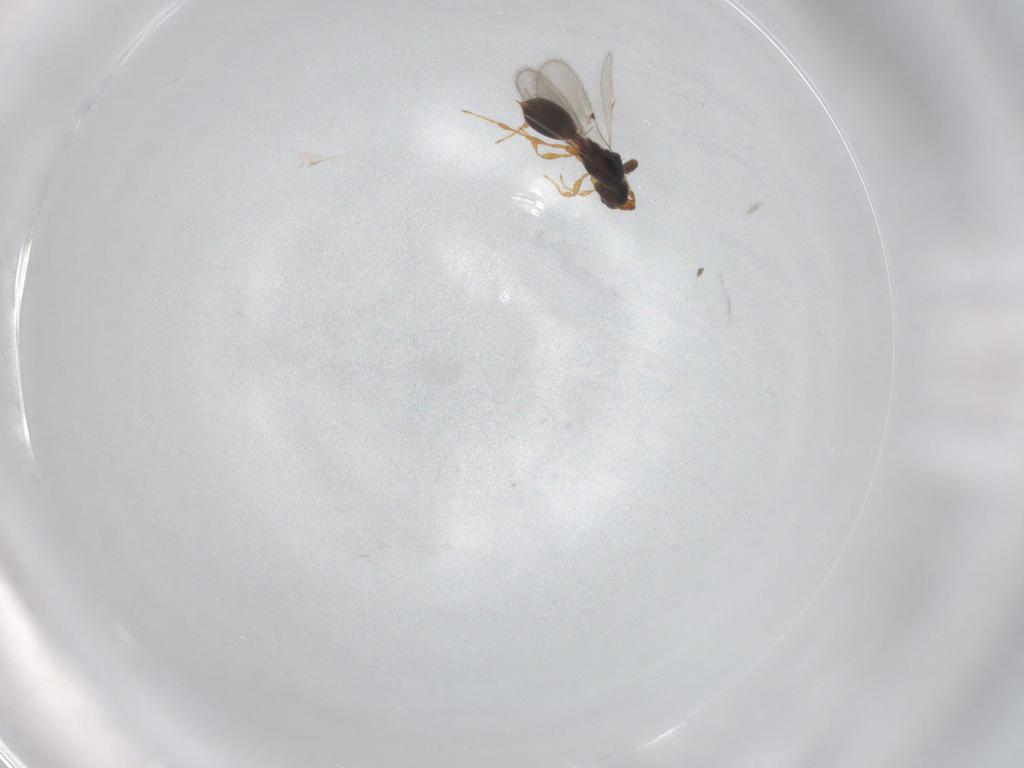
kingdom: Animalia
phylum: Arthropoda
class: Insecta
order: Hymenoptera
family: Diapriidae
